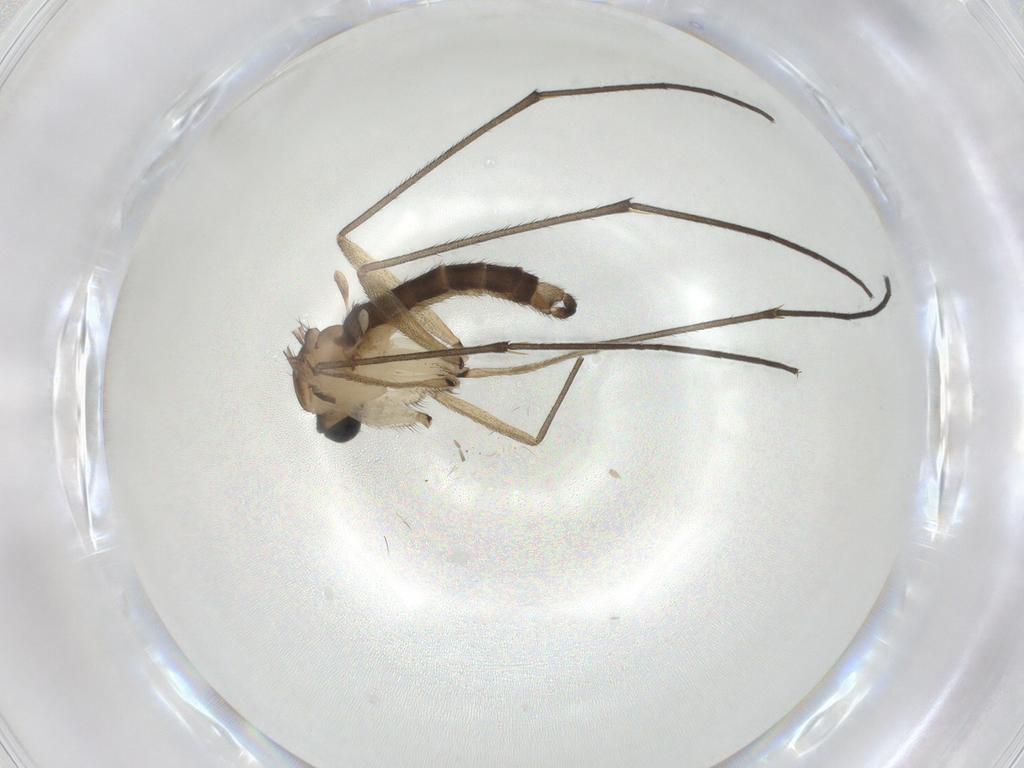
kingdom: Animalia
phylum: Arthropoda
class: Insecta
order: Diptera
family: Sciaridae
